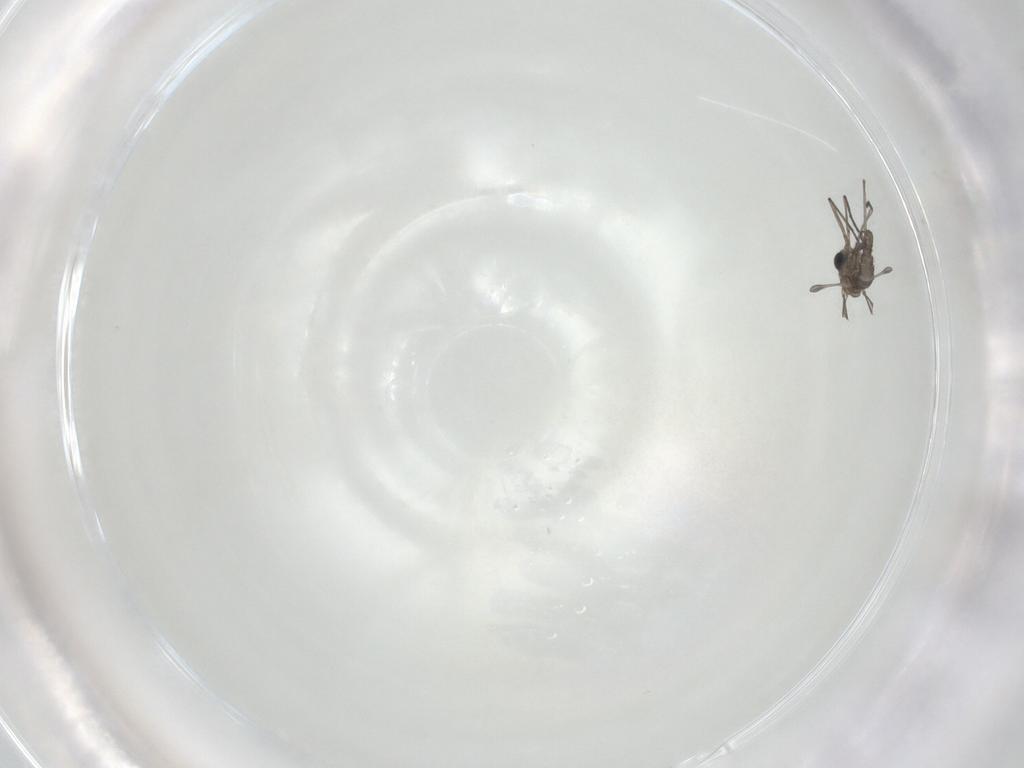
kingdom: Animalia
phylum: Arthropoda
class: Insecta
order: Diptera
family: Sciaridae
